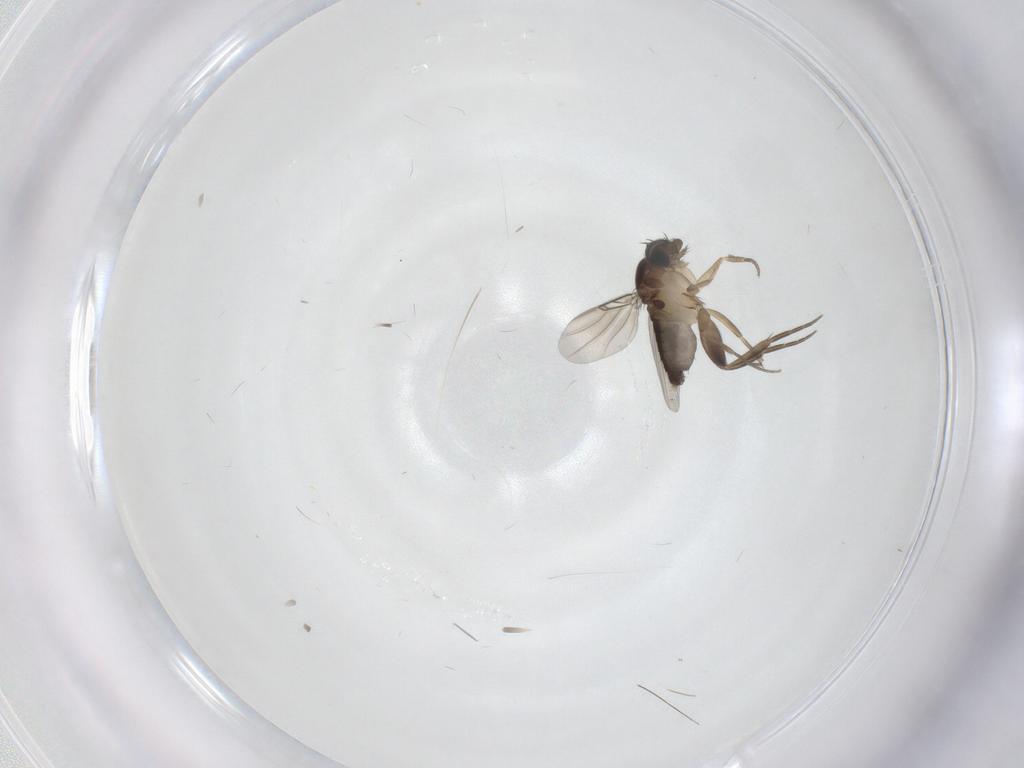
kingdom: Animalia
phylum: Arthropoda
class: Insecta
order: Diptera
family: Phoridae
